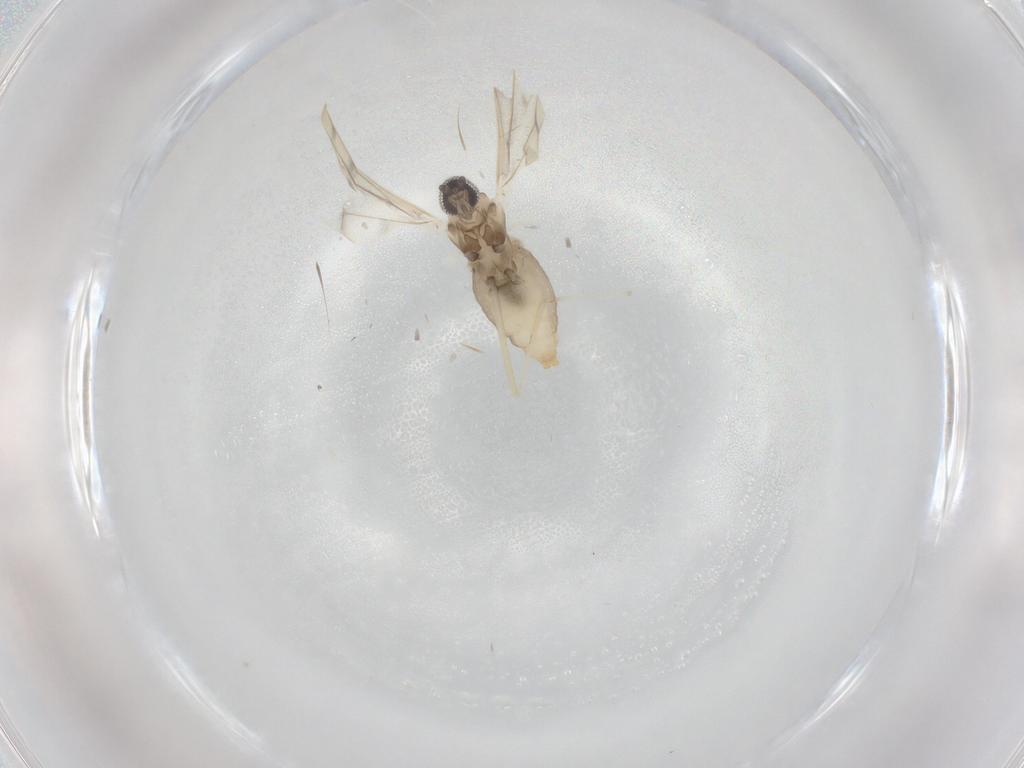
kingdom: Animalia
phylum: Arthropoda
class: Insecta
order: Diptera
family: Cecidomyiidae
